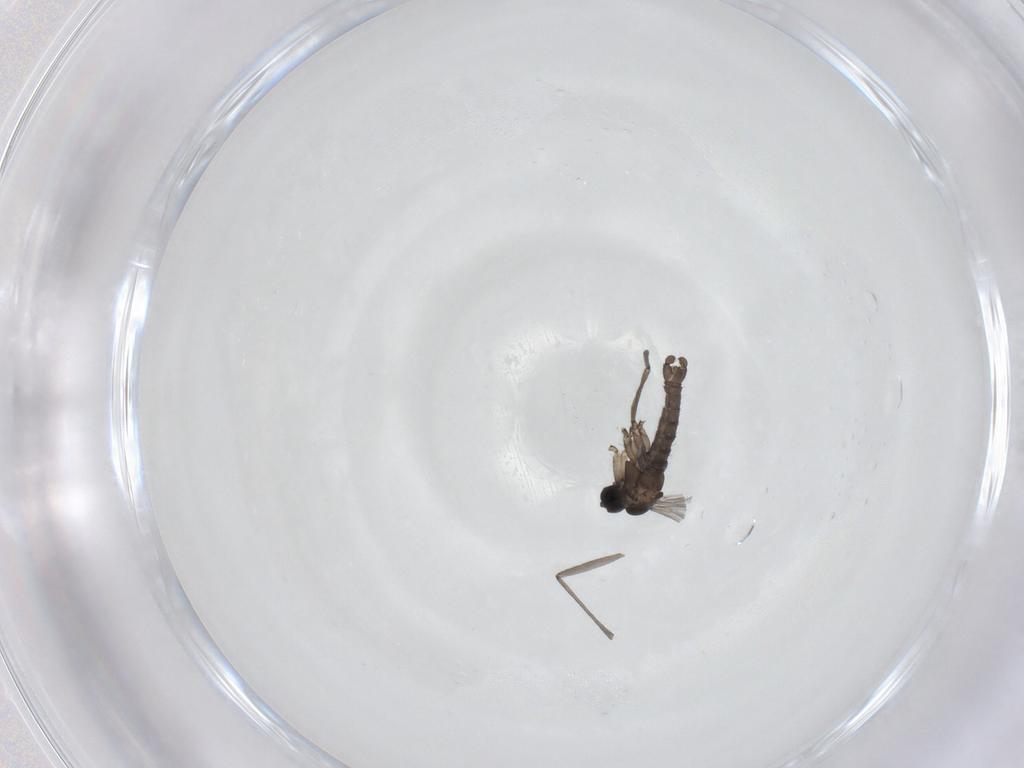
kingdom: Animalia
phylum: Arthropoda
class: Insecta
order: Diptera
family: Sciaridae
